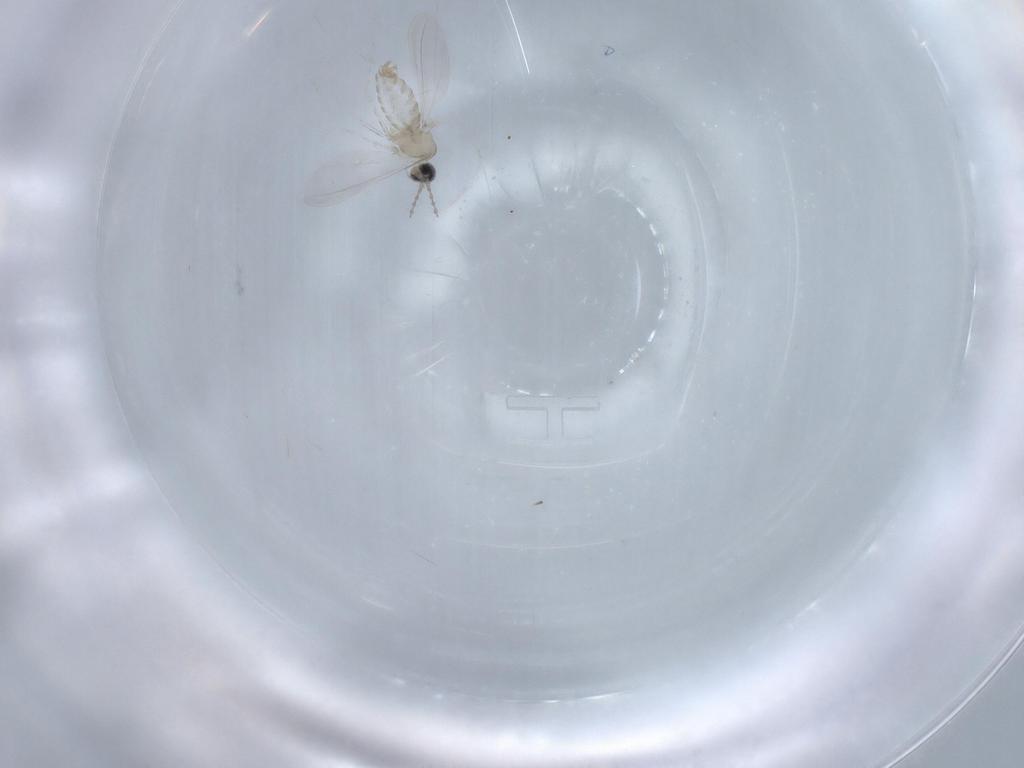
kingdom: Animalia
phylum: Arthropoda
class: Insecta
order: Diptera
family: Cecidomyiidae
